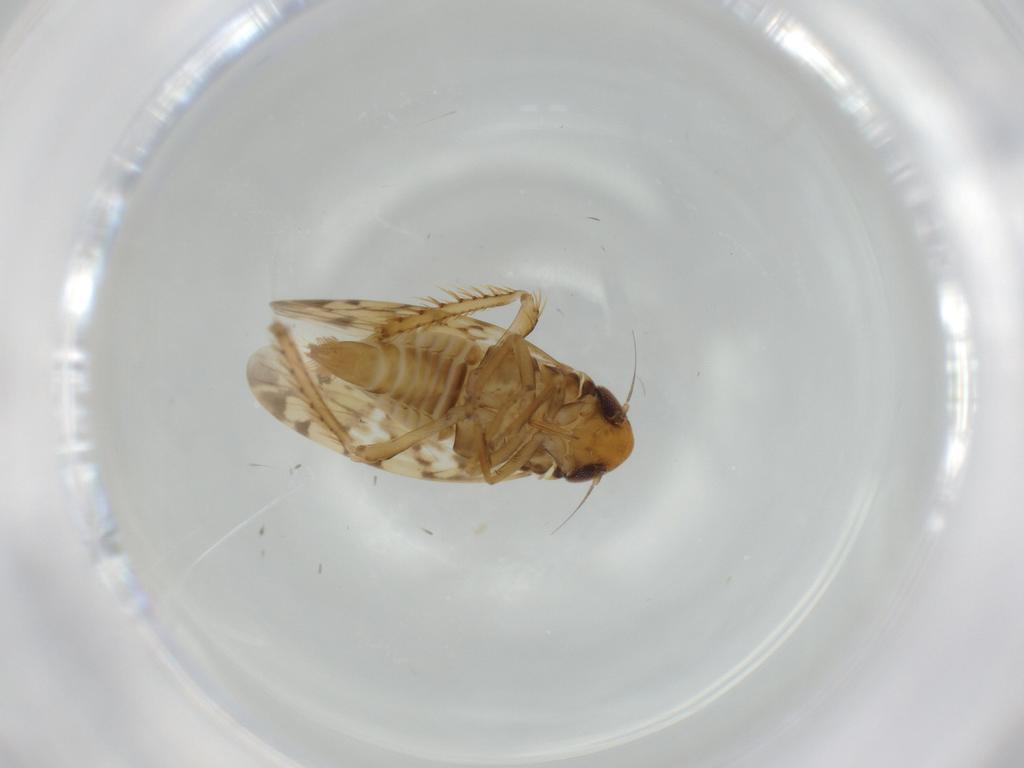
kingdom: Animalia
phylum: Arthropoda
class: Insecta
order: Hemiptera
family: Cicadellidae
